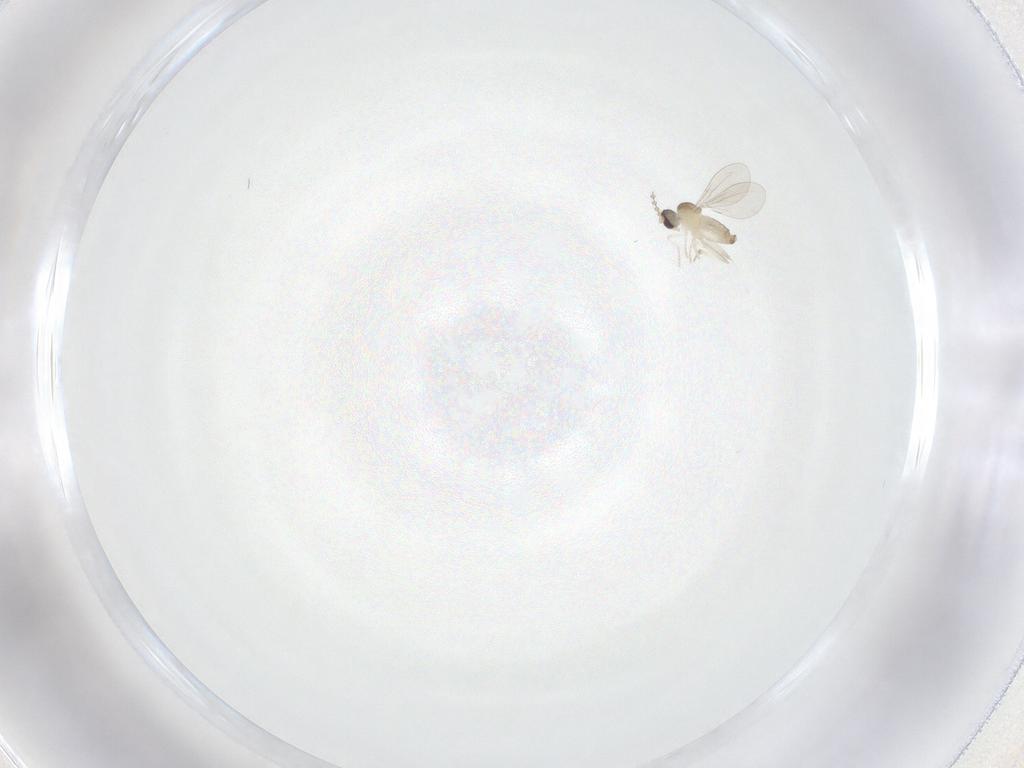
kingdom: Animalia
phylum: Arthropoda
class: Insecta
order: Diptera
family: Cecidomyiidae
